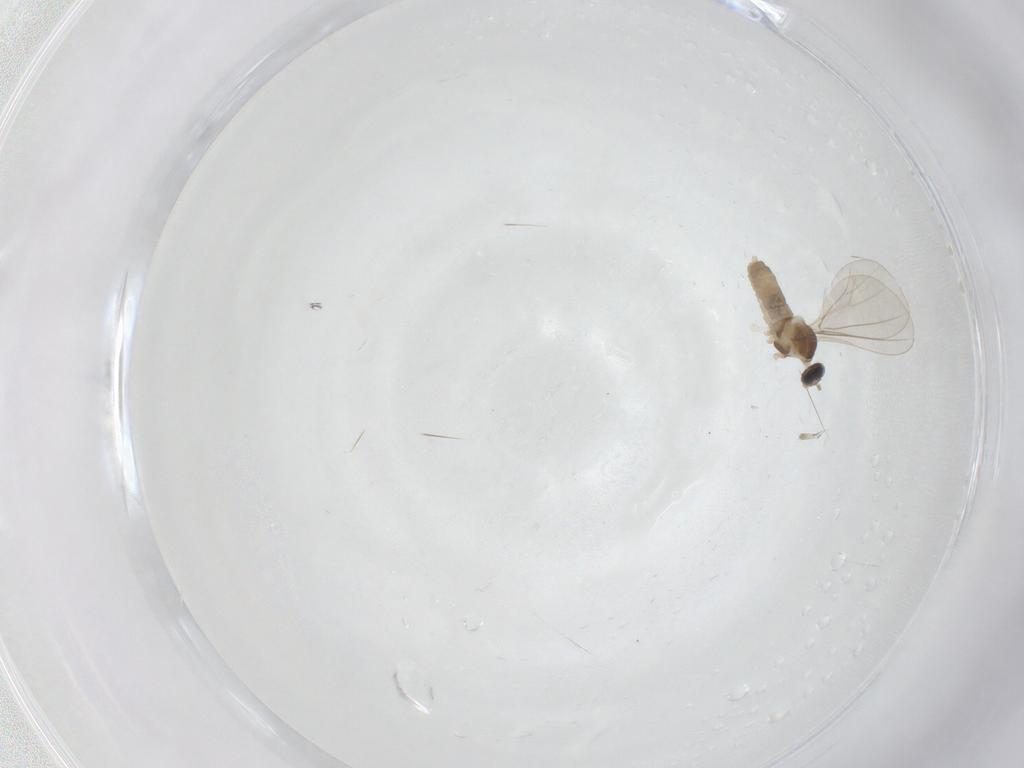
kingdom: Animalia
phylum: Arthropoda
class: Insecta
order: Diptera
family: Cecidomyiidae
